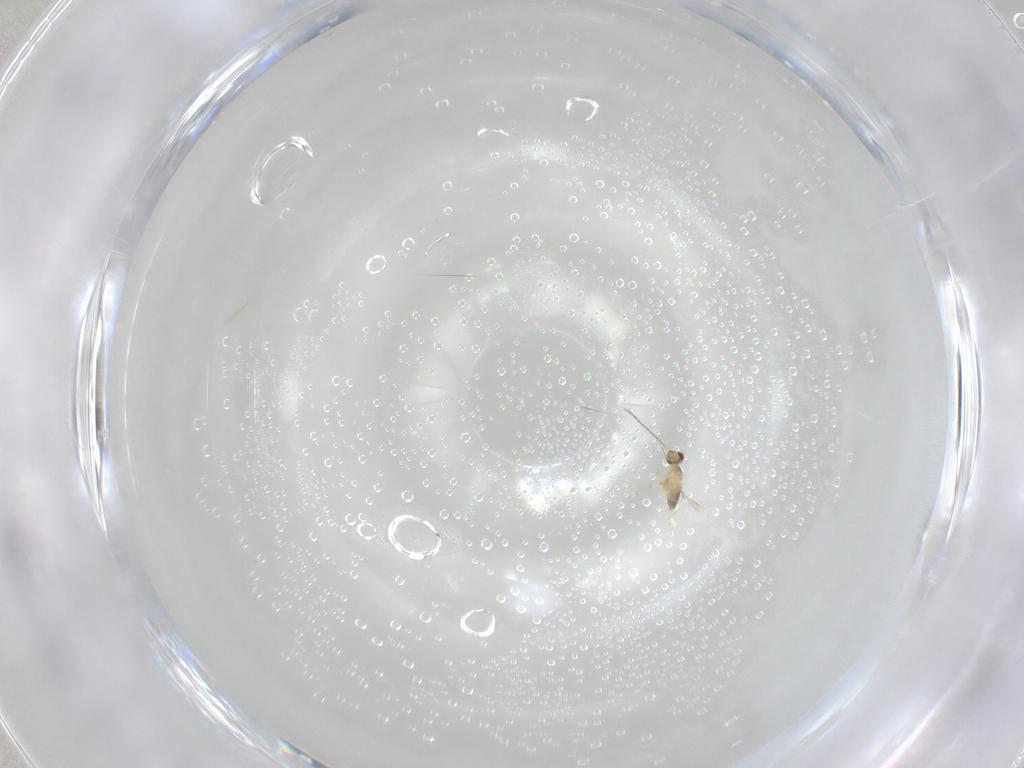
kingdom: Animalia
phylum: Arthropoda
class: Insecta
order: Hymenoptera
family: Mymaridae
